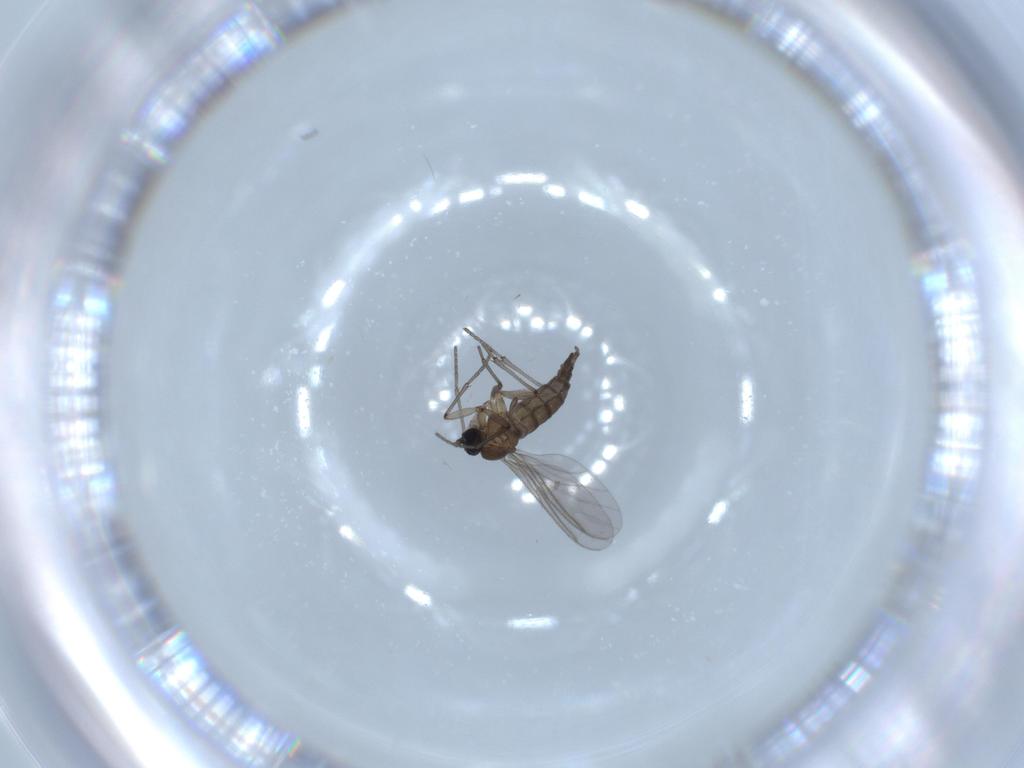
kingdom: Animalia
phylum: Arthropoda
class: Insecta
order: Diptera
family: Sciaridae
